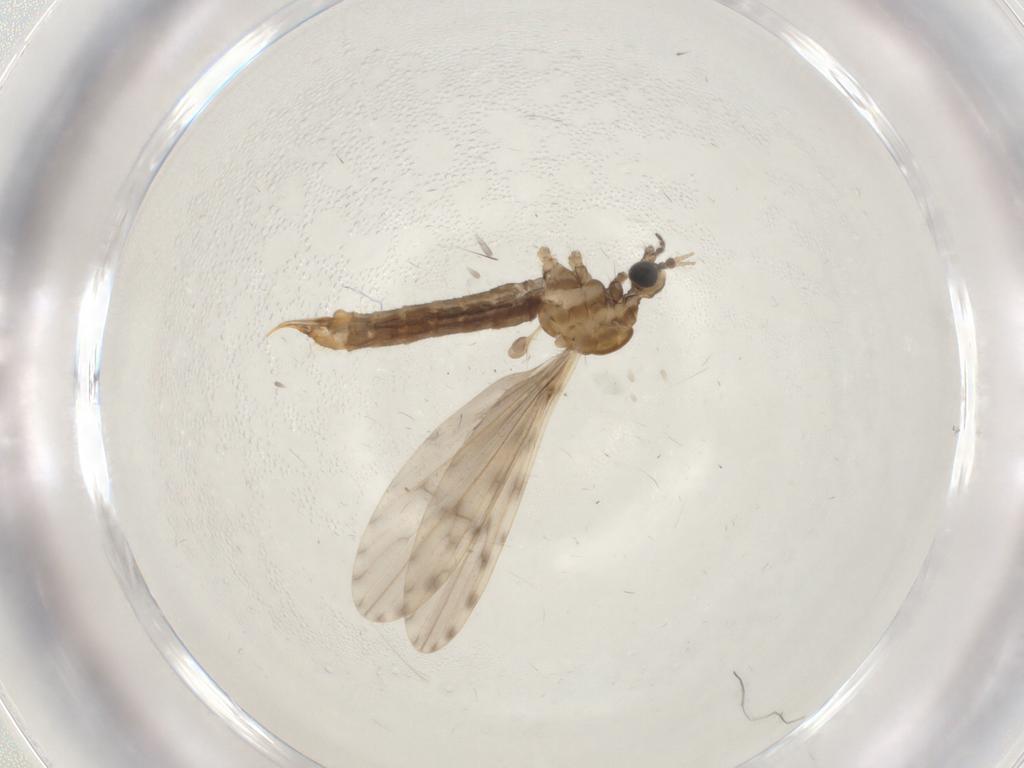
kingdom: Animalia
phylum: Arthropoda
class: Insecta
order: Diptera
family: Limoniidae
